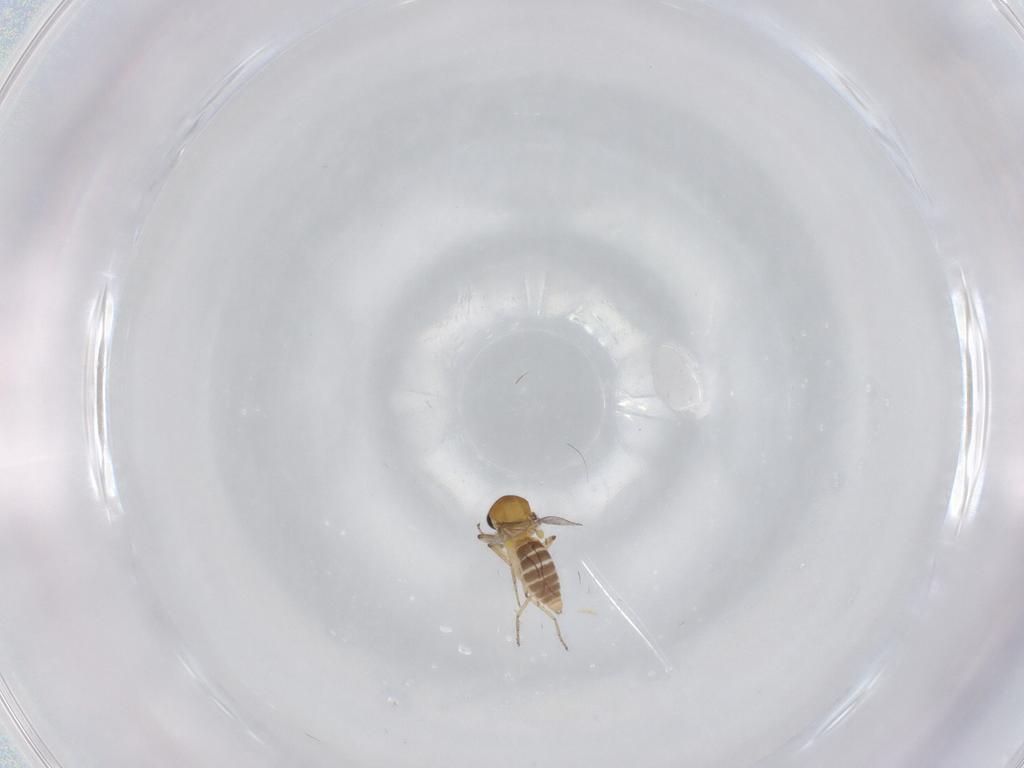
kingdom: Animalia
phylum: Arthropoda
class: Insecta
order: Diptera
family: Ceratopogonidae
